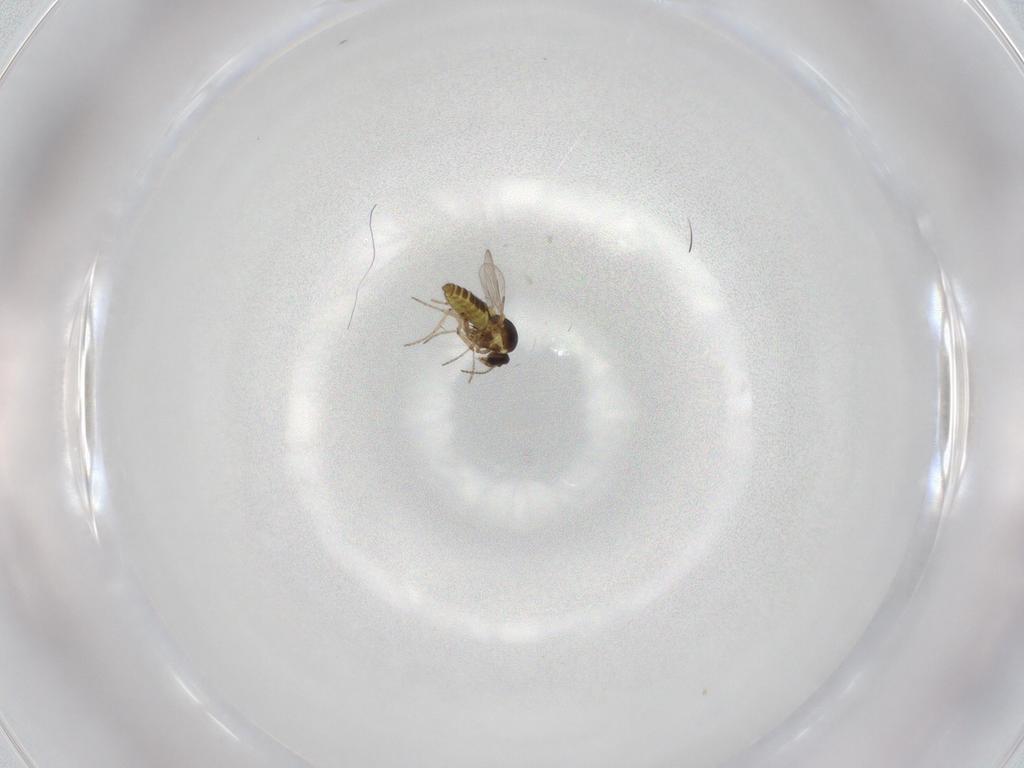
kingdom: Animalia
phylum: Arthropoda
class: Insecta
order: Diptera
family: Ceratopogonidae
